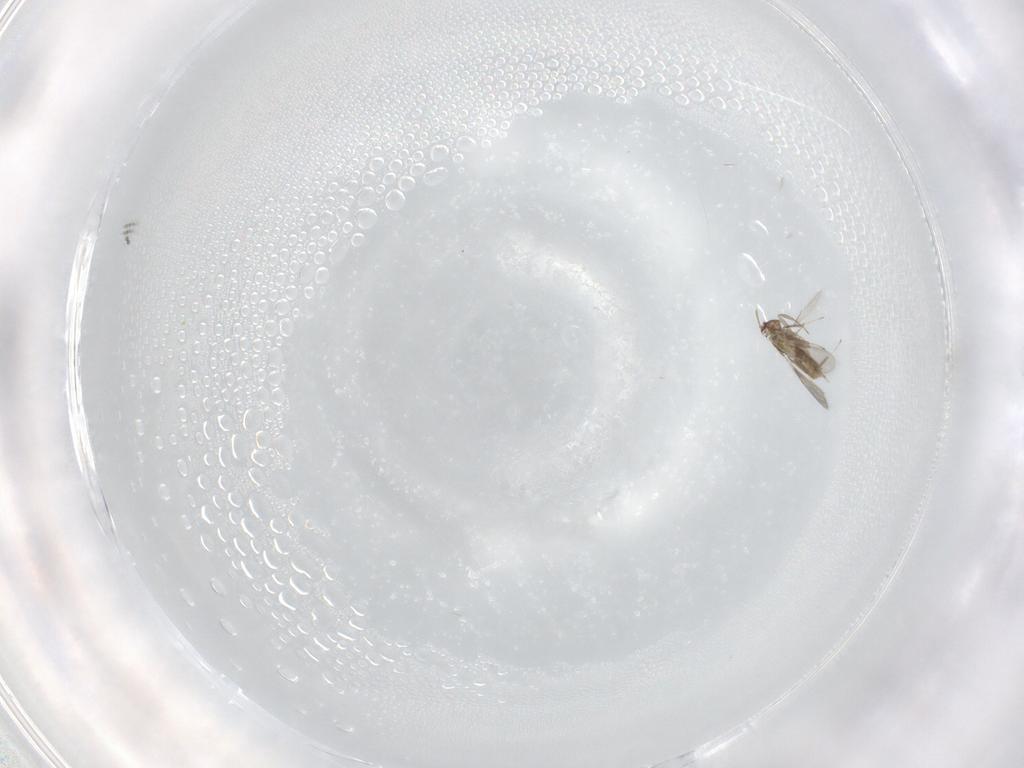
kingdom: Animalia
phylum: Arthropoda
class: Insecta
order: Hymenoptera
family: Aphelinidae
